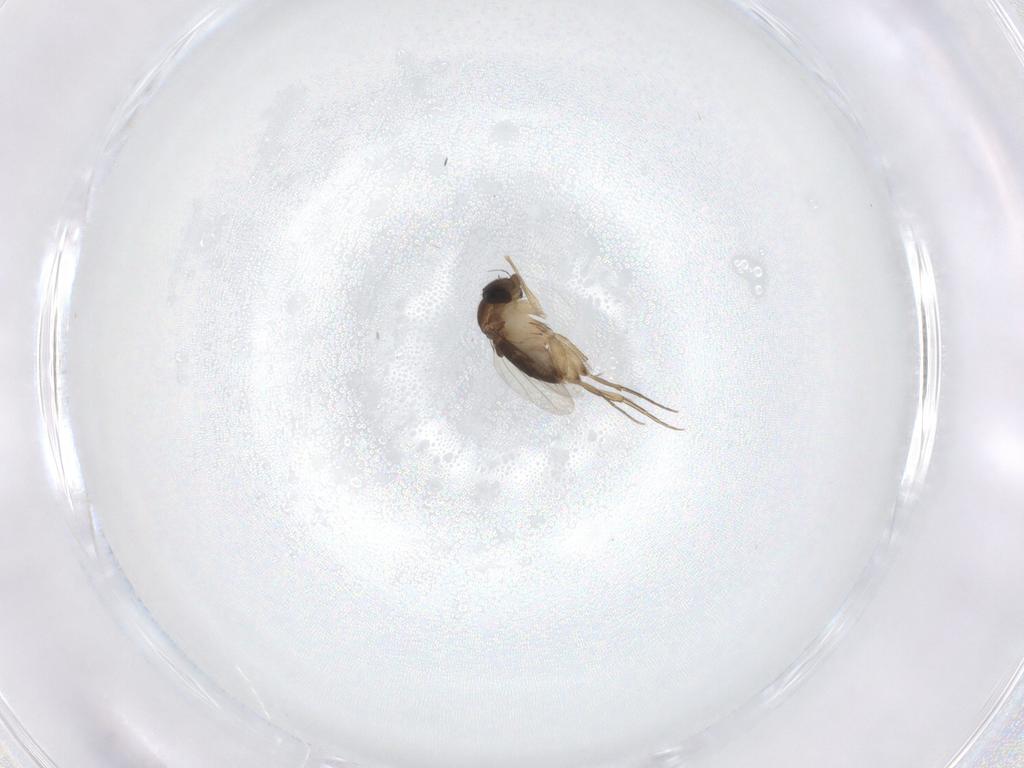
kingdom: Animalia
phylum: Arthropoda
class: Insecta
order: Diptera
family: Phoridae
